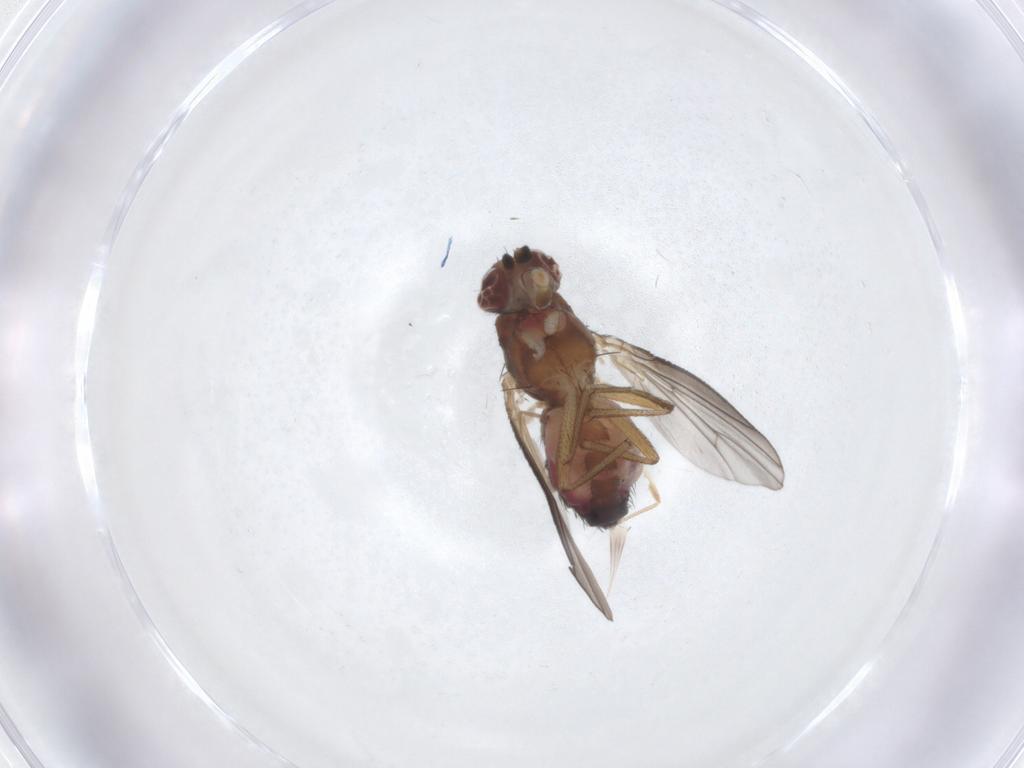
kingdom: Animalia
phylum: Arthropoda
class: Insecta
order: Diptera
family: Heleomyzidae
